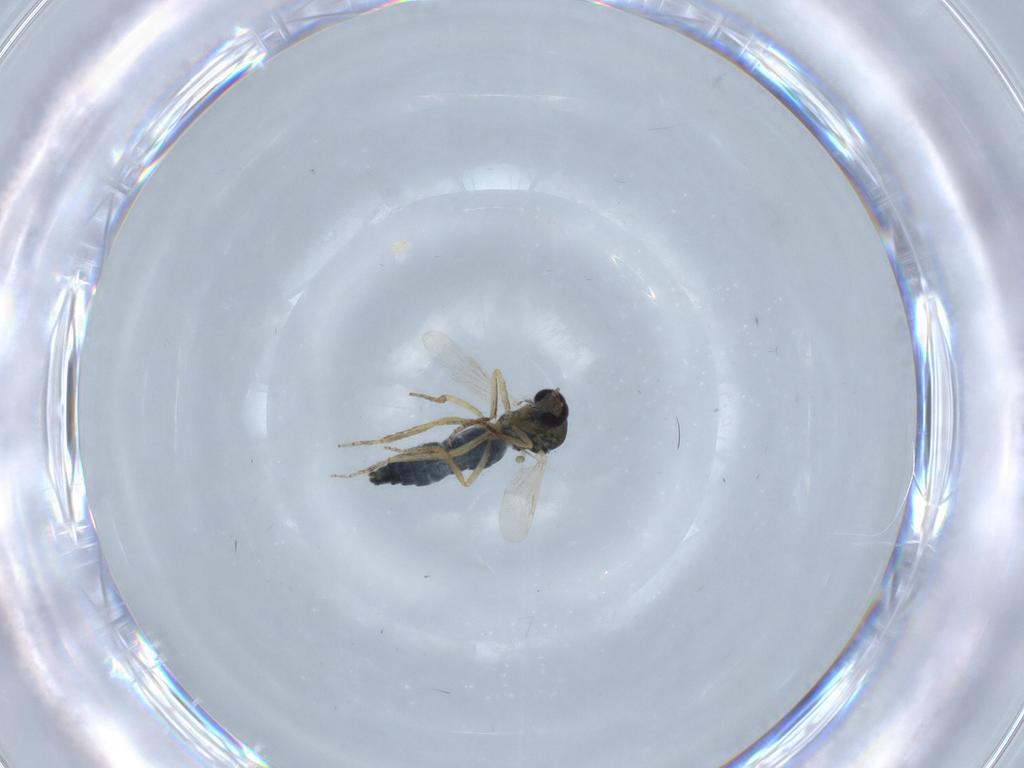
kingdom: Animalia
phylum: Arthropoda
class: Insecta
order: Diptera
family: Ceratopogonidae
